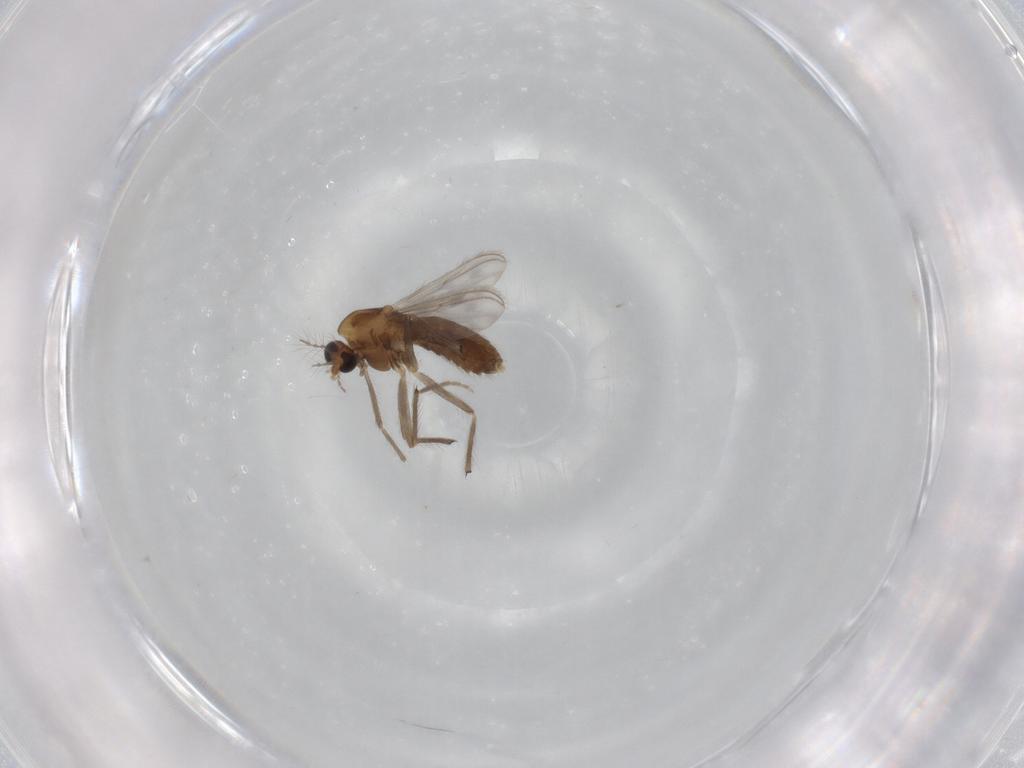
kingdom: Animalia
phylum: Arthropoda
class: Insecta
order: Diptera
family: Chironomidae
